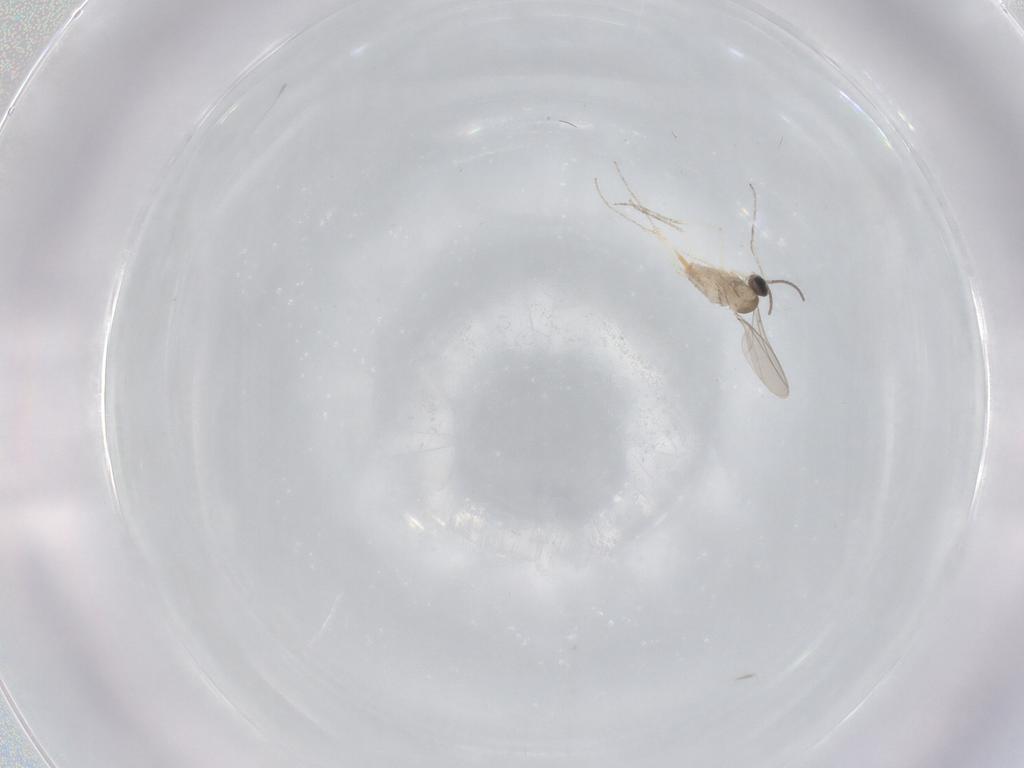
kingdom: Animalia
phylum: Arthropoda
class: Insecta
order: Diptera
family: Cecidomyiidae
